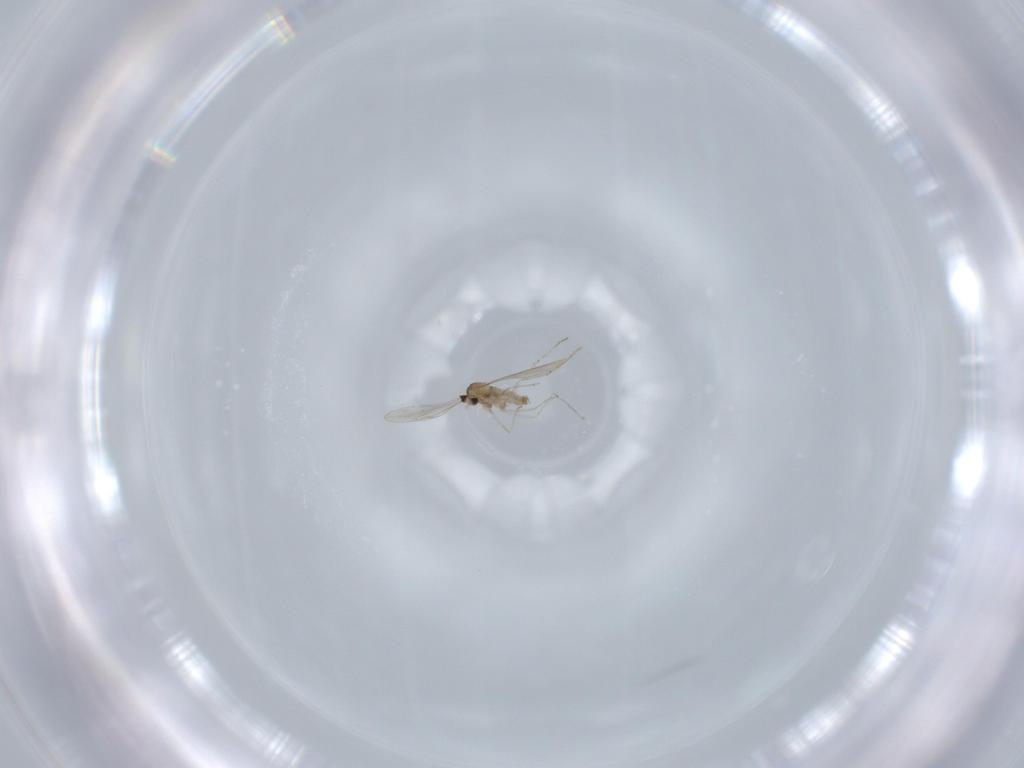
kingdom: Animalia
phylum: Arthropoda
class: Insecta
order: Diptera
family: Cecidomyiidae
